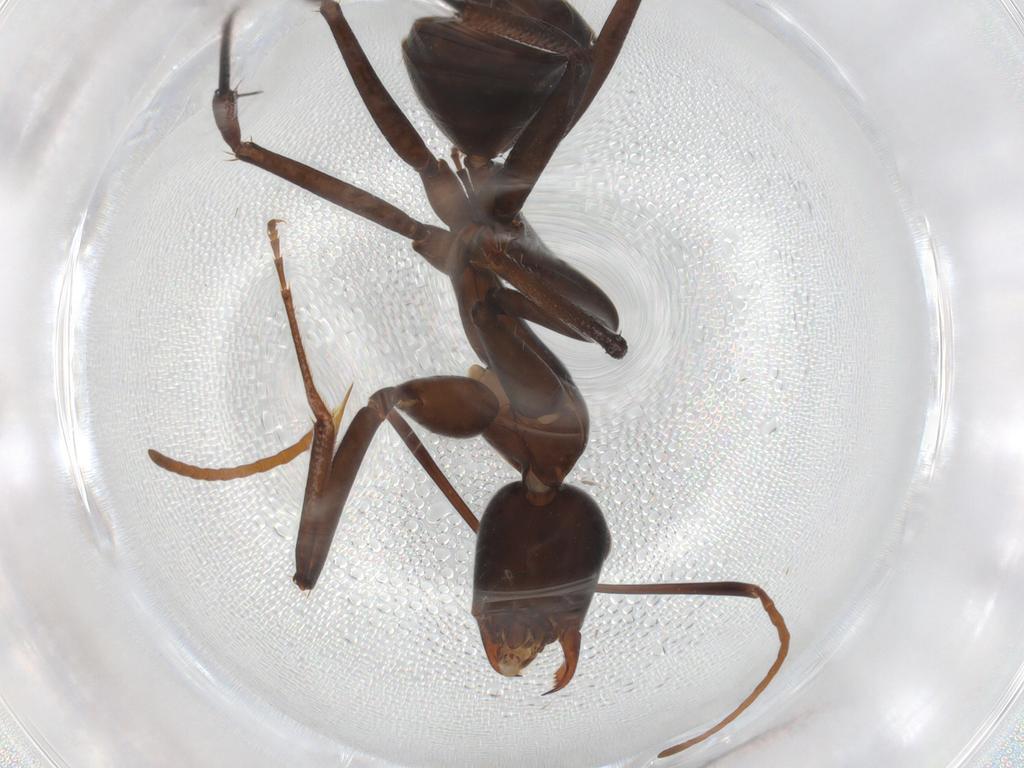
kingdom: Animalia
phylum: Arthropoda
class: Insecta
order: Hymenoptera
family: Formicidae
